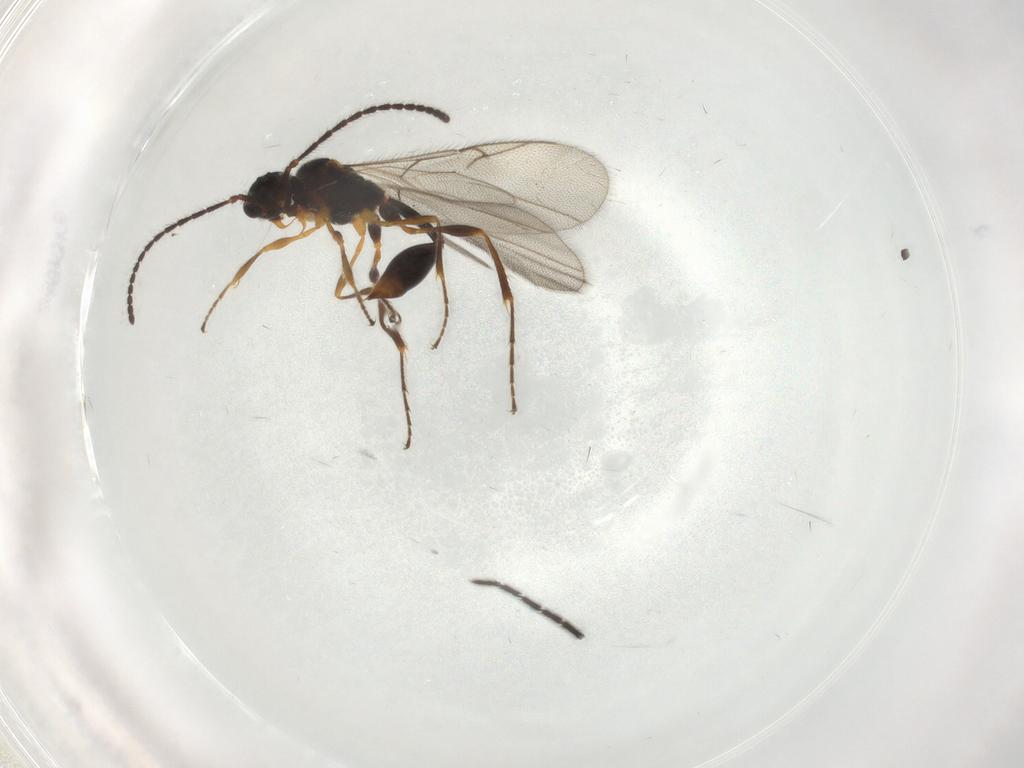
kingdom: Animalia
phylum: Arthropoda
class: Insecta
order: Hymenoptera
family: Diapriidae
